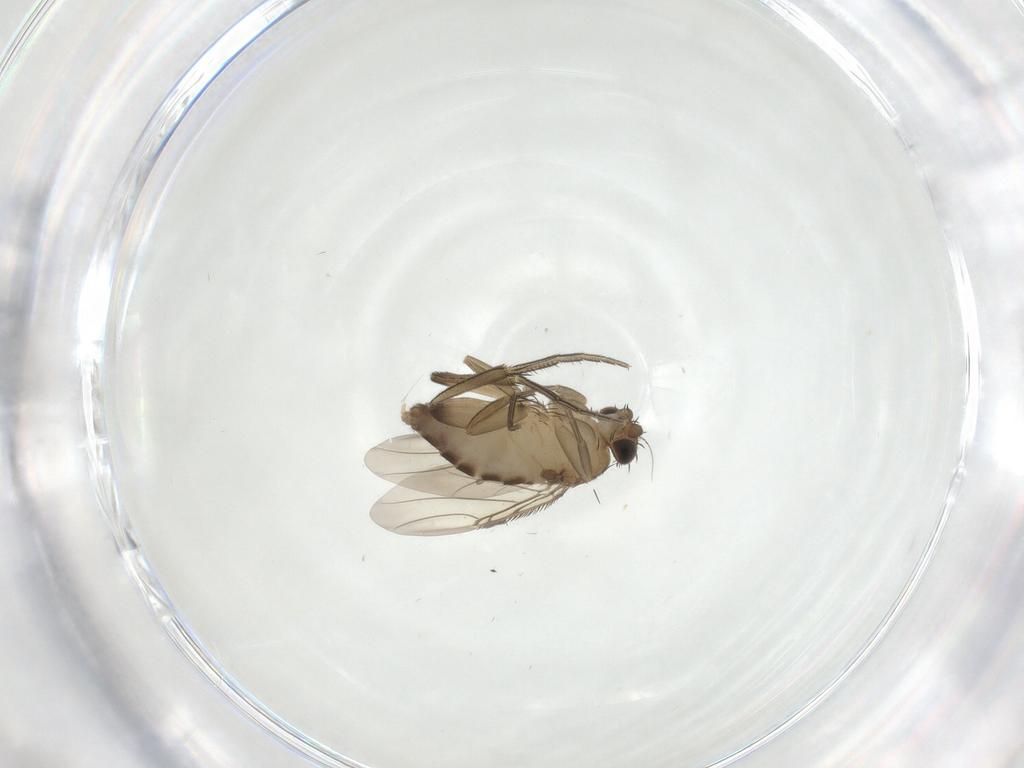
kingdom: Animalia
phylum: Arthropoda
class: Insecta
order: Diptera
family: Phoridae
